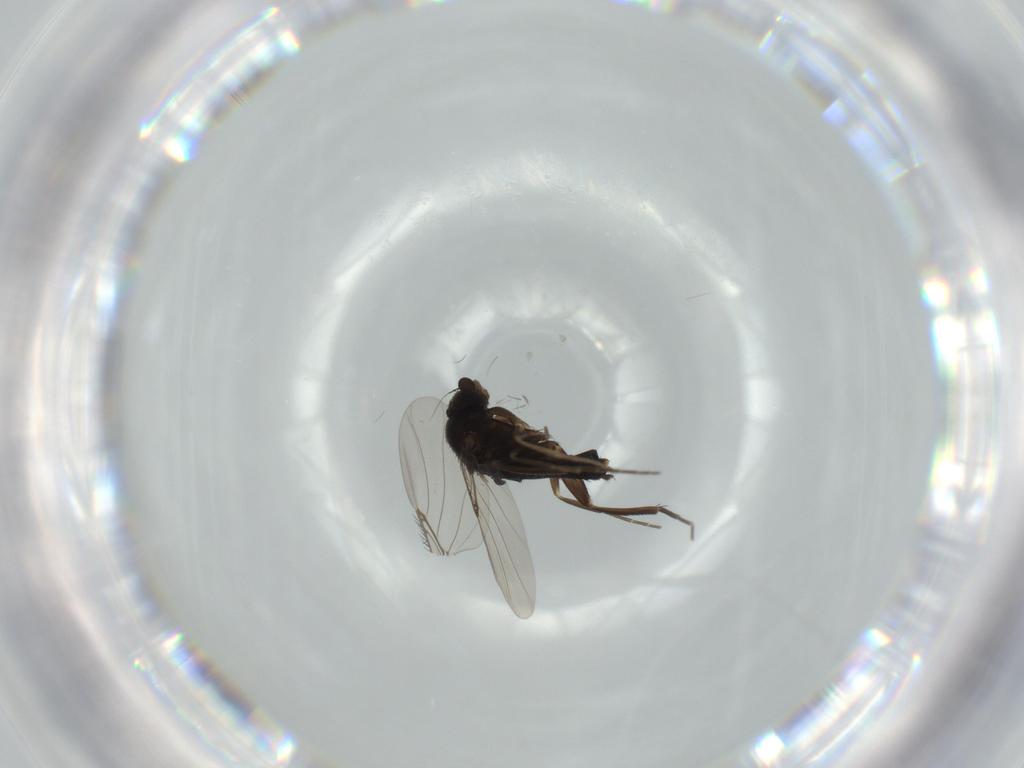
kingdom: Animalia
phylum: Arthropoda
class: Insecta
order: Diptera
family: Phoridae
